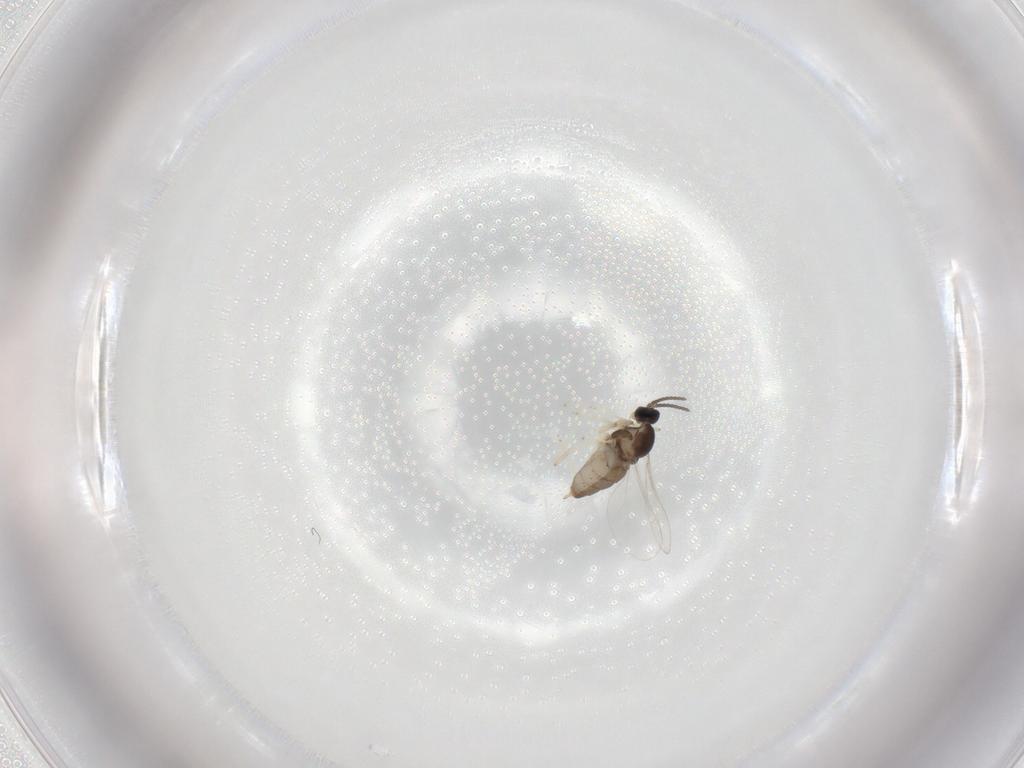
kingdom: Animalia
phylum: Arthropoda
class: Insecta
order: Diptera
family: Cecidomyiidae
